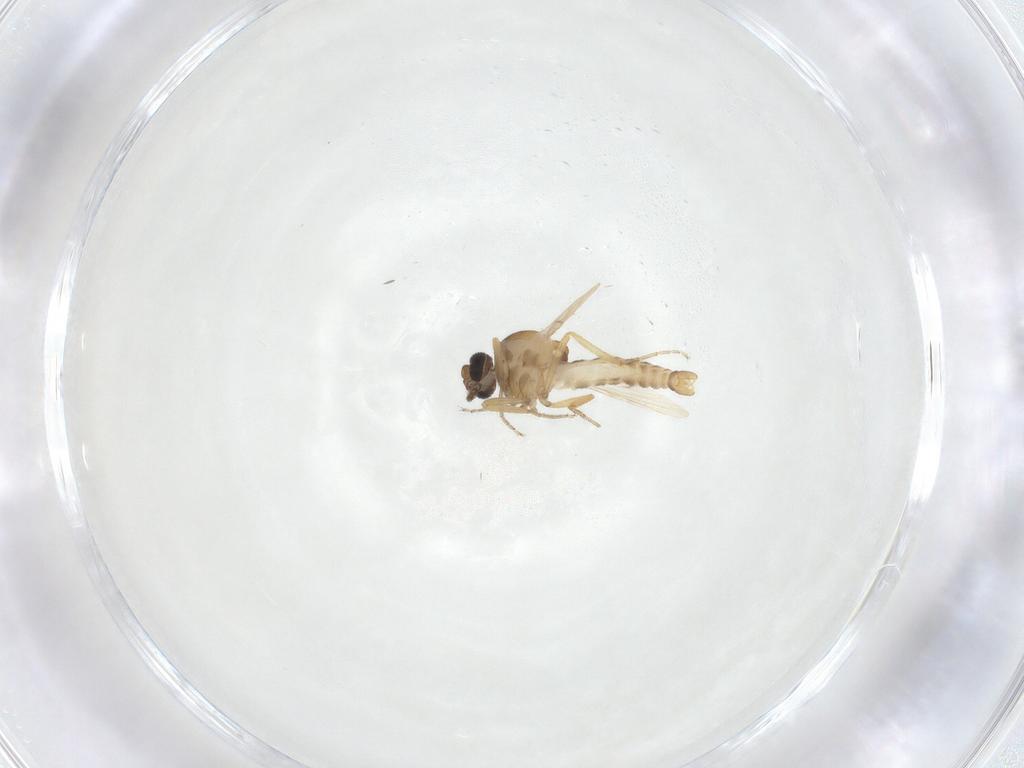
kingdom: Animalia
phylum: Arthropoda
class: Insecta
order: Diptera
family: Ceratopogonidae
